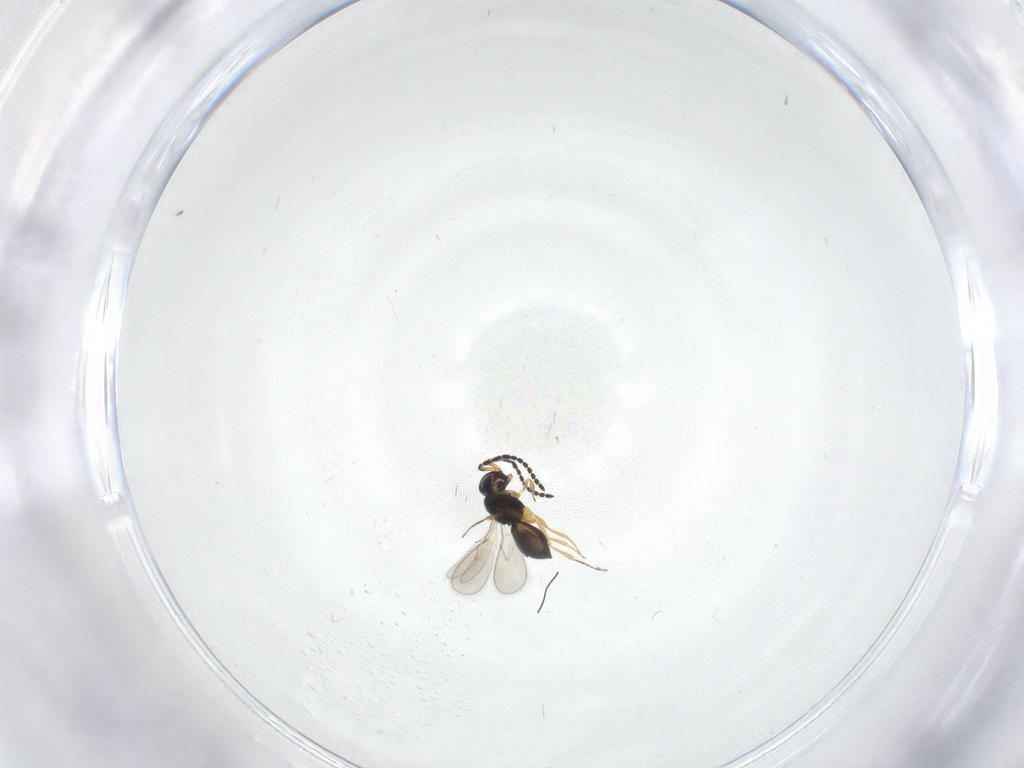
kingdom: Animalia
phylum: Arthropoda
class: Insecta
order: Hymenoptera
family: Scelionidae
